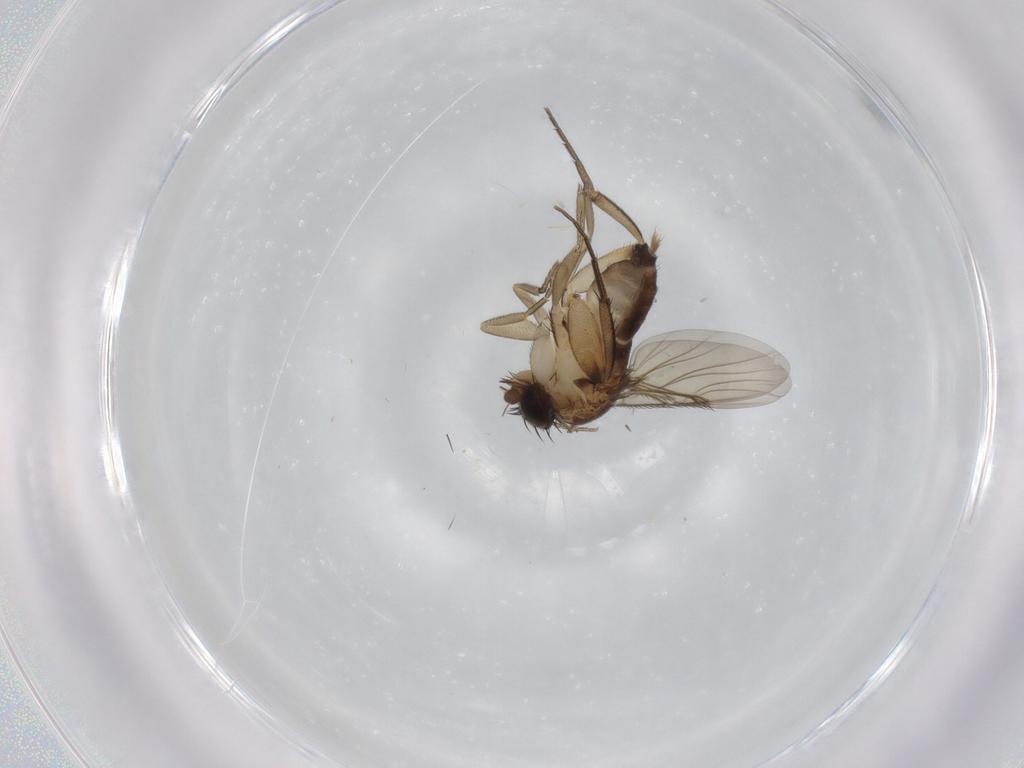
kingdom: Animalia
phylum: Arthropoda
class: Insecta
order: Diptera
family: Phoridae
